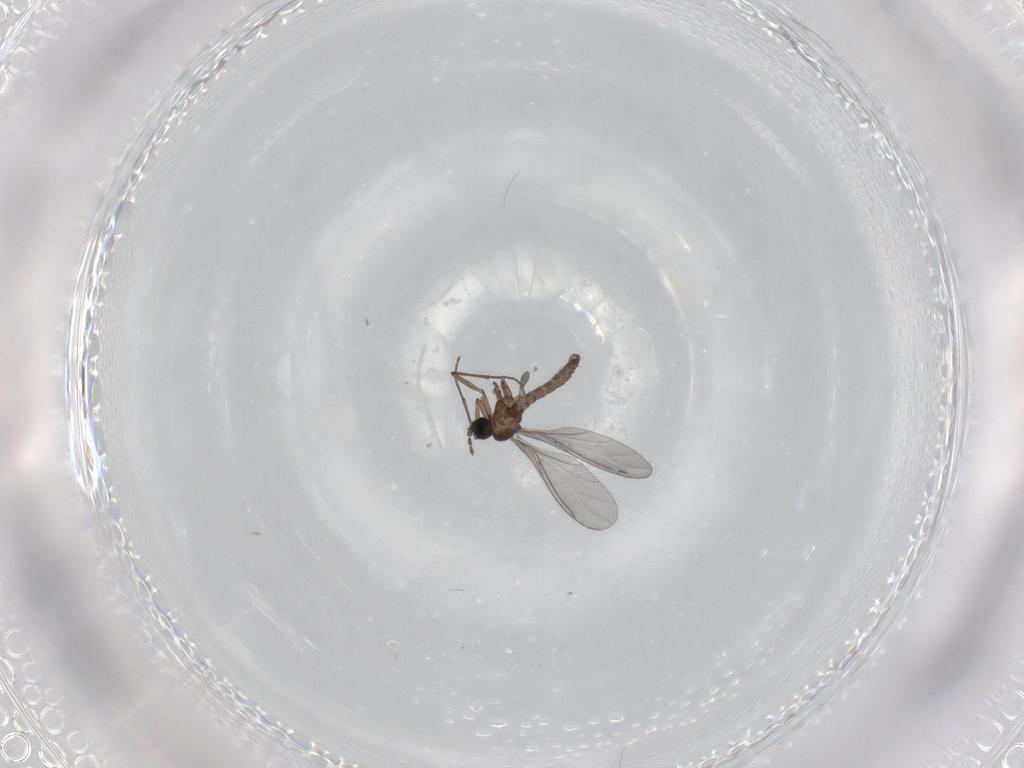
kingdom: Animalia
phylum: Arthropoda
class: Insecta
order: Diptera
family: Sciaridae
